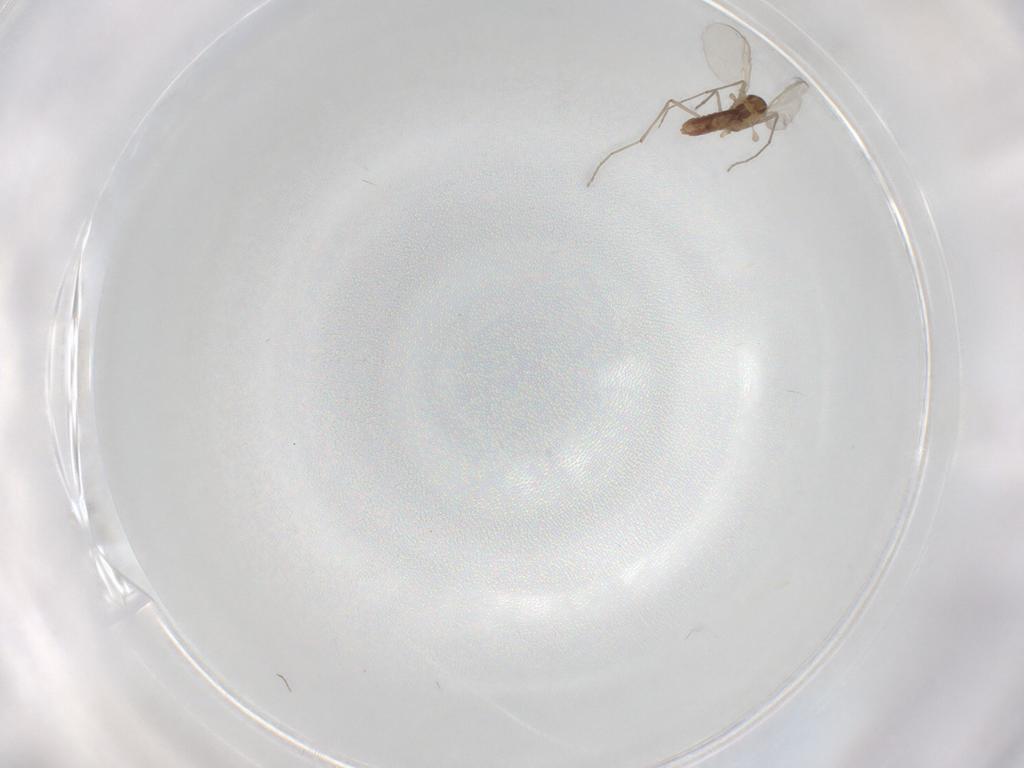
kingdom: Animalia
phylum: Arthropoda
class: Insecta
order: Diptera
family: Chironomidae
